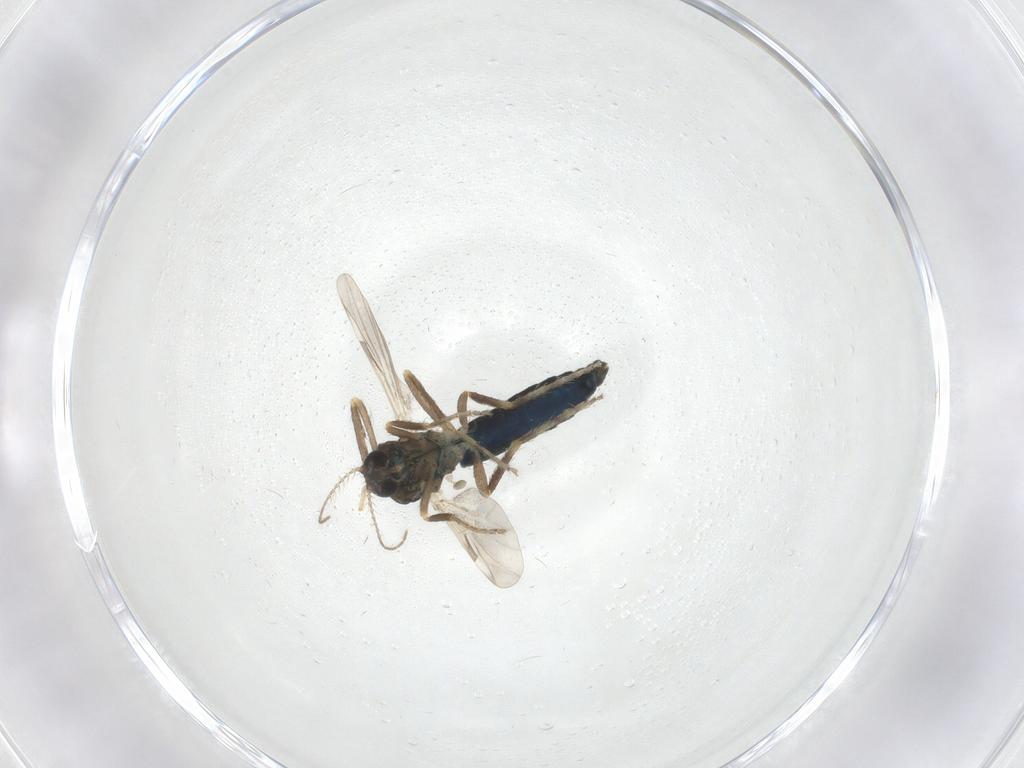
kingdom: Animalia
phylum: Arthropoda
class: Insecta
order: Diptera
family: Ceratopogonidae
